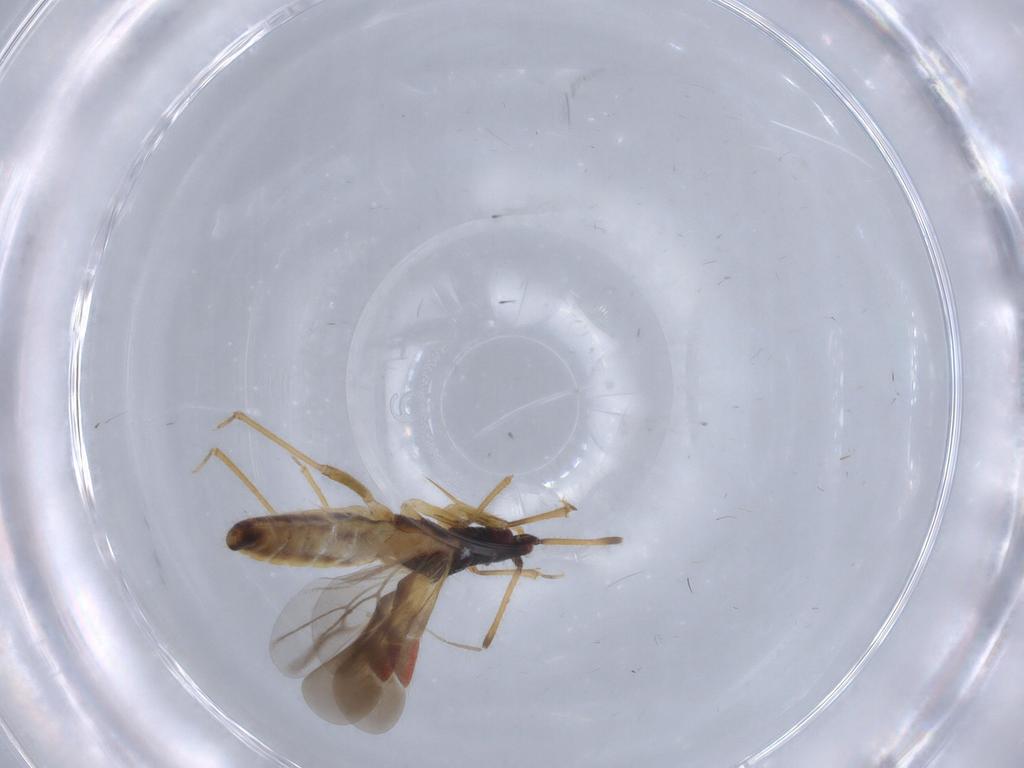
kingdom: Animalia
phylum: Arthropoda
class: Insecta
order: Hemiptera
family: Lasiochilidae
